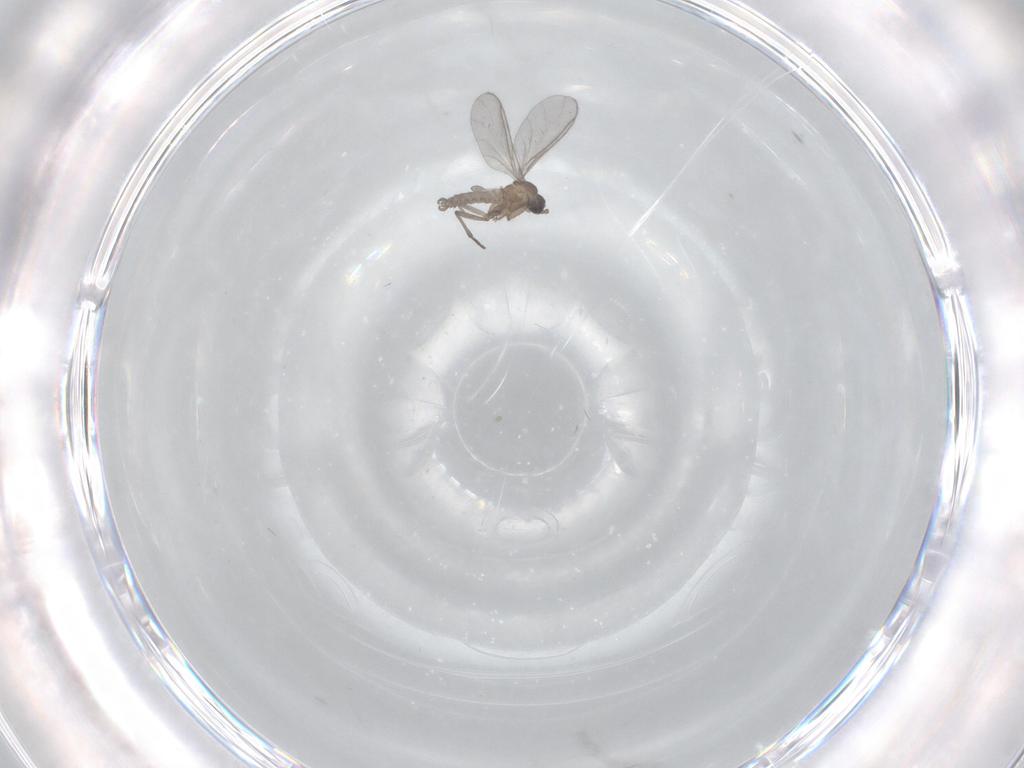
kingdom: Animalia
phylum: Arthropoda
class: Insecta
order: Diptera
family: Sciaridae
